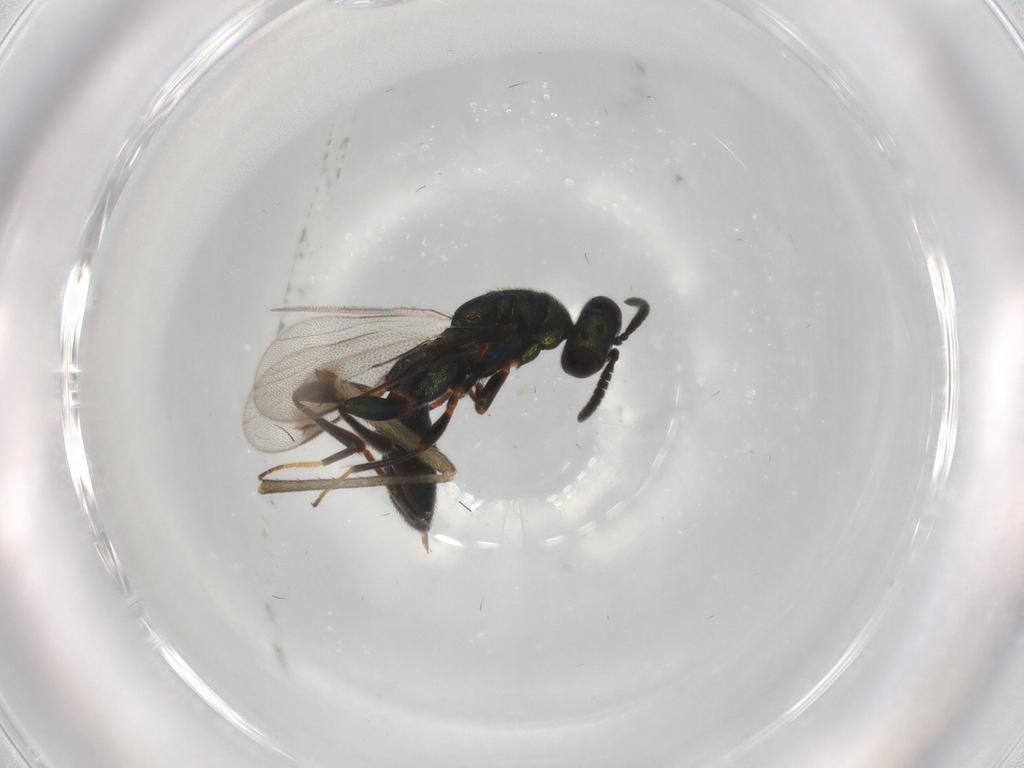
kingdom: Animalia
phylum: Arthropoda
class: Insecta
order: Hymenoptera
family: Cleonyminae
